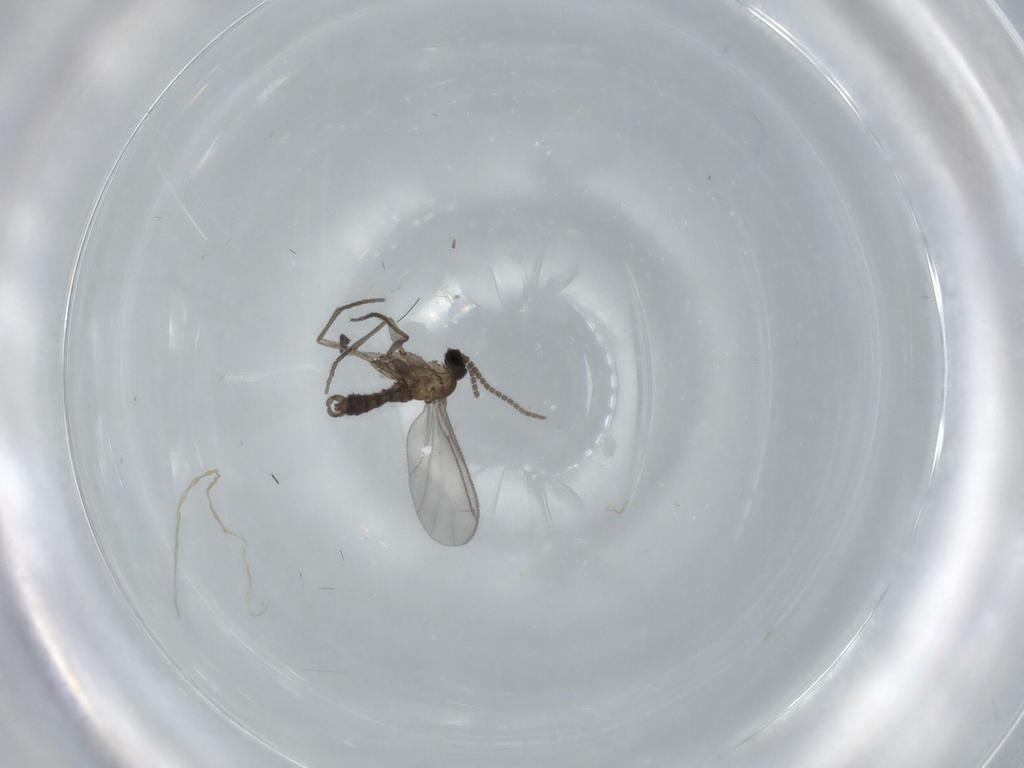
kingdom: Animalia
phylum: Arthropoda
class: Insecta
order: Diptera
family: Sciaridae
